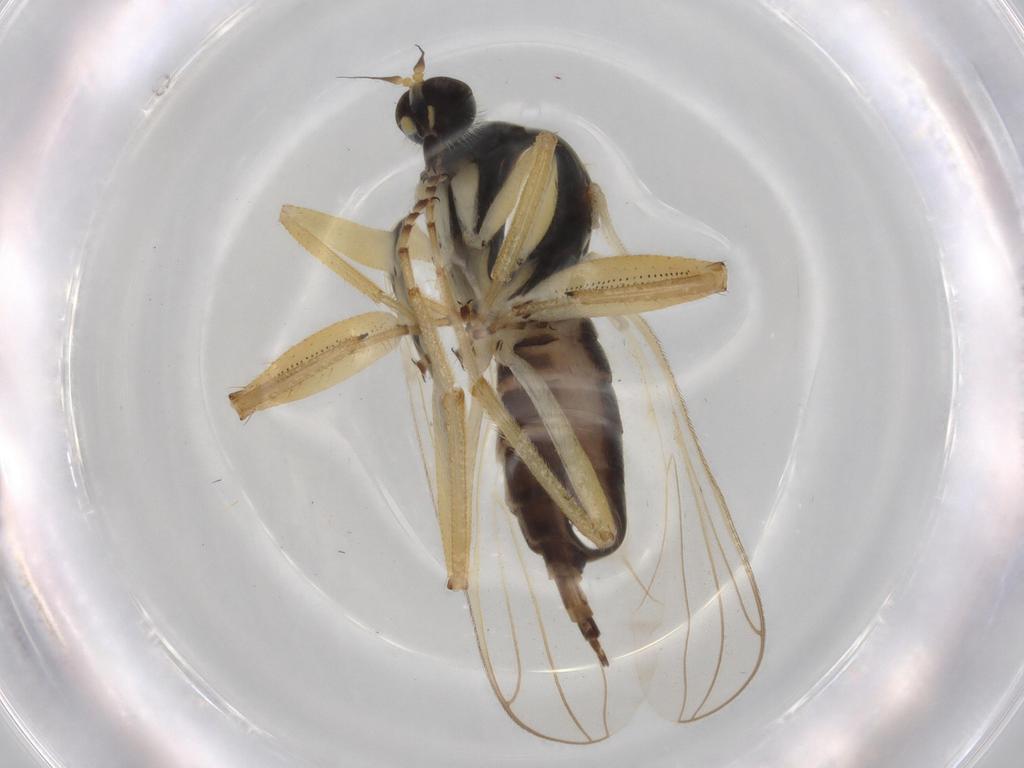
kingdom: Animalia
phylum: Arthropoda
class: Insecta
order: Diptera
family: Hybotidae
